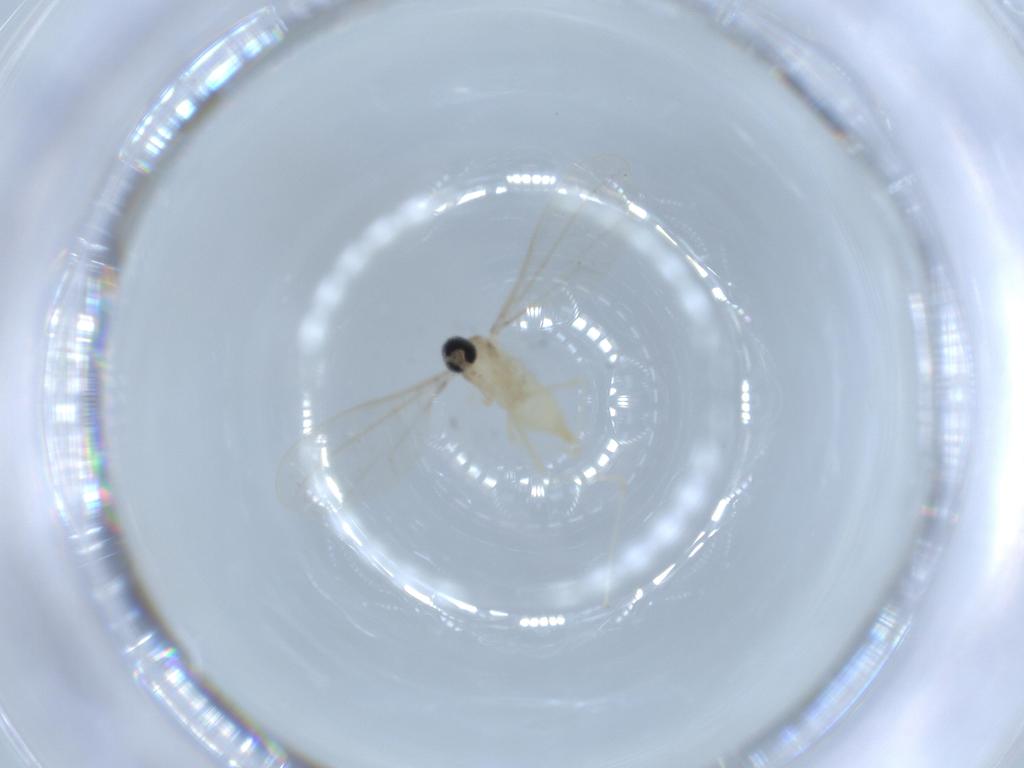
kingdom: Animalia
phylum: Arthropoda
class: Insecta
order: Diptera
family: Cecidomyiidae
